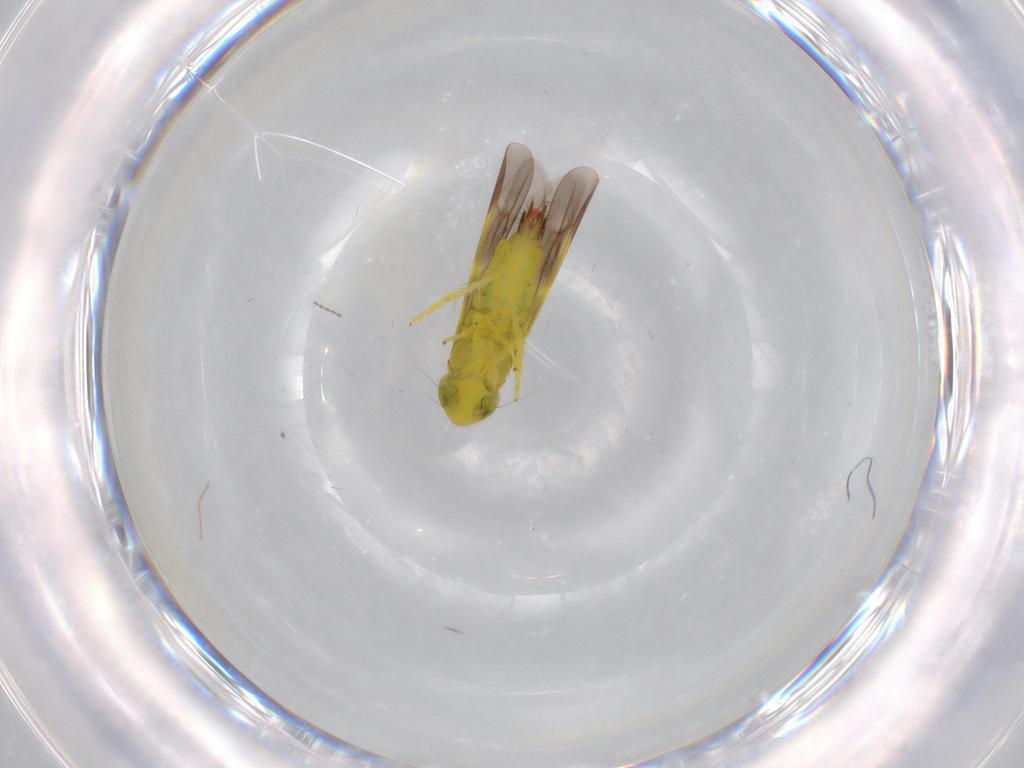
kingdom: Animalia
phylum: Arthropoda
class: Insecta
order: Hemiptera
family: Cicadellidae
